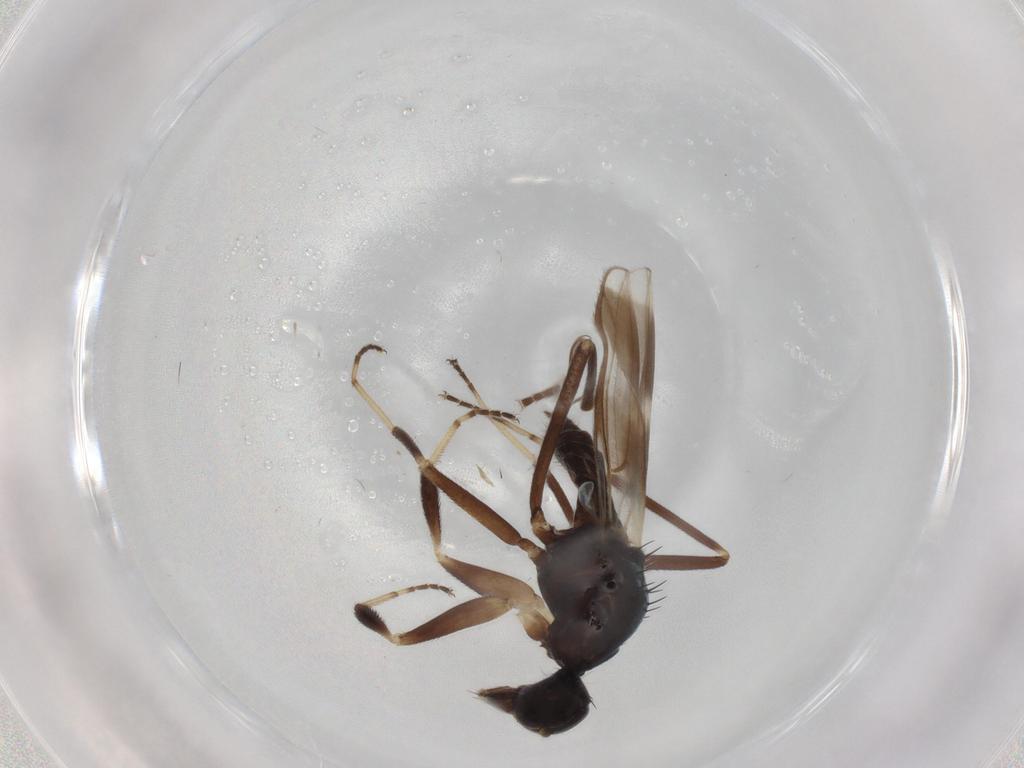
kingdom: Animalia
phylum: Arthropoda
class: Insecta
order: Diptera
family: Hybotidae
